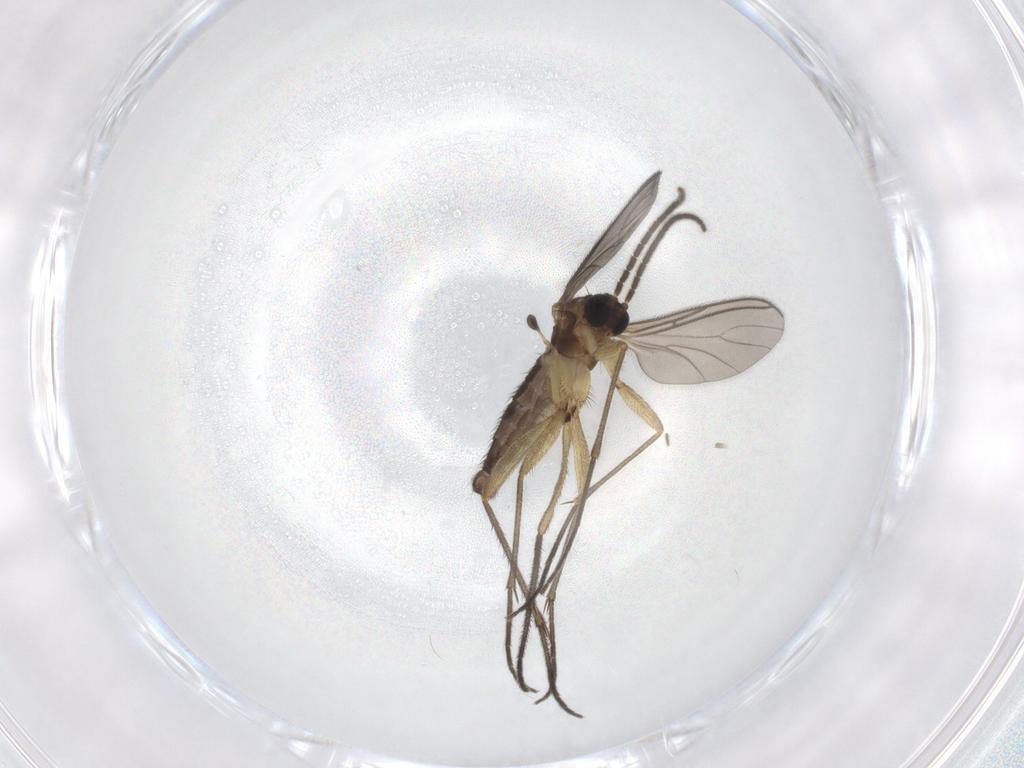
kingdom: Animalia
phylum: Arthropoda
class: Insecta
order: Diptera
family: Sciaridae
